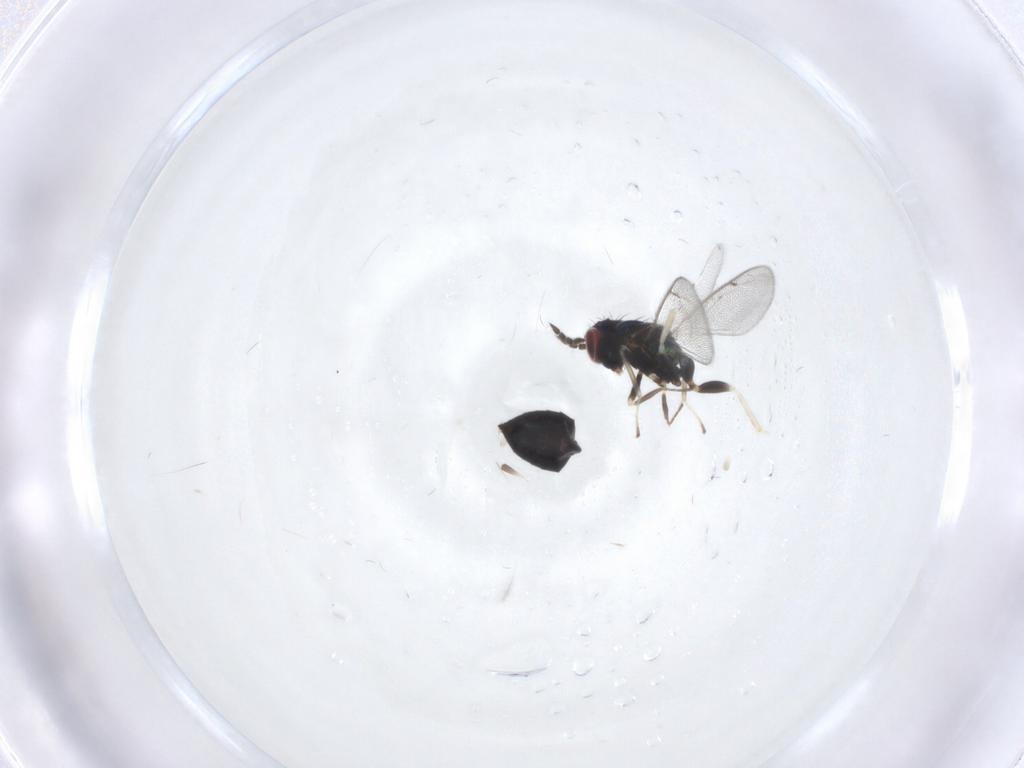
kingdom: Animalia
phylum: Arthropoda
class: Insecta
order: Hymenoptera
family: Eulophidae
